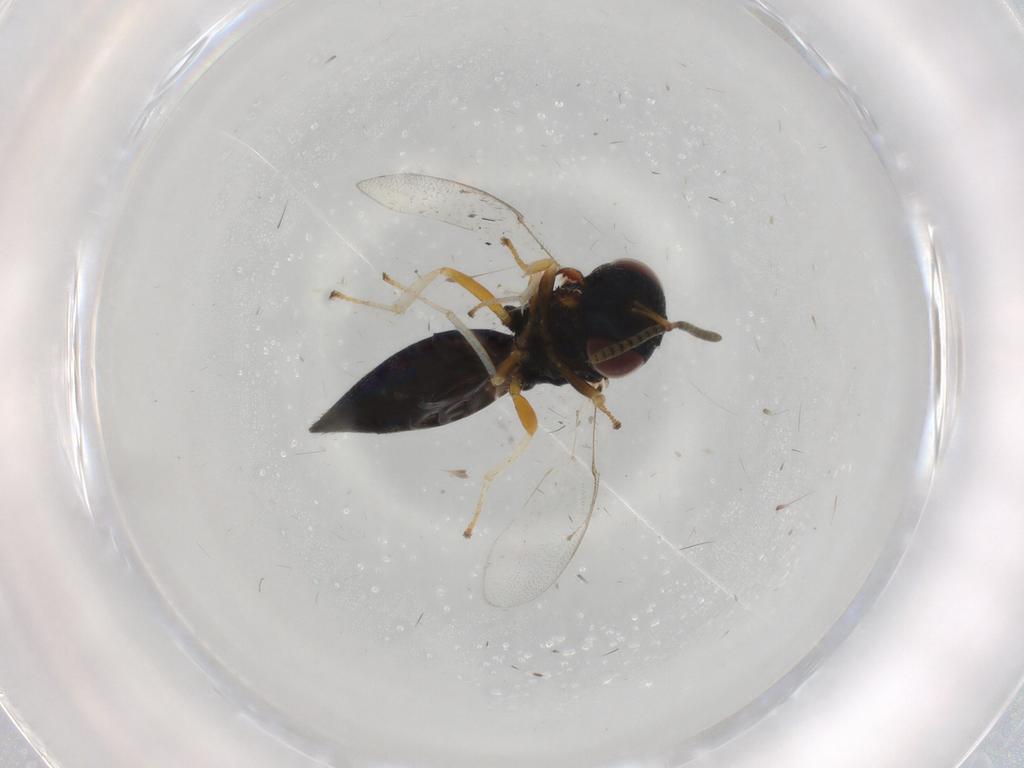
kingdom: Animalia
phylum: Arthropoda
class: Insecta
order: Hymenoptera
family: Pteromalidae
